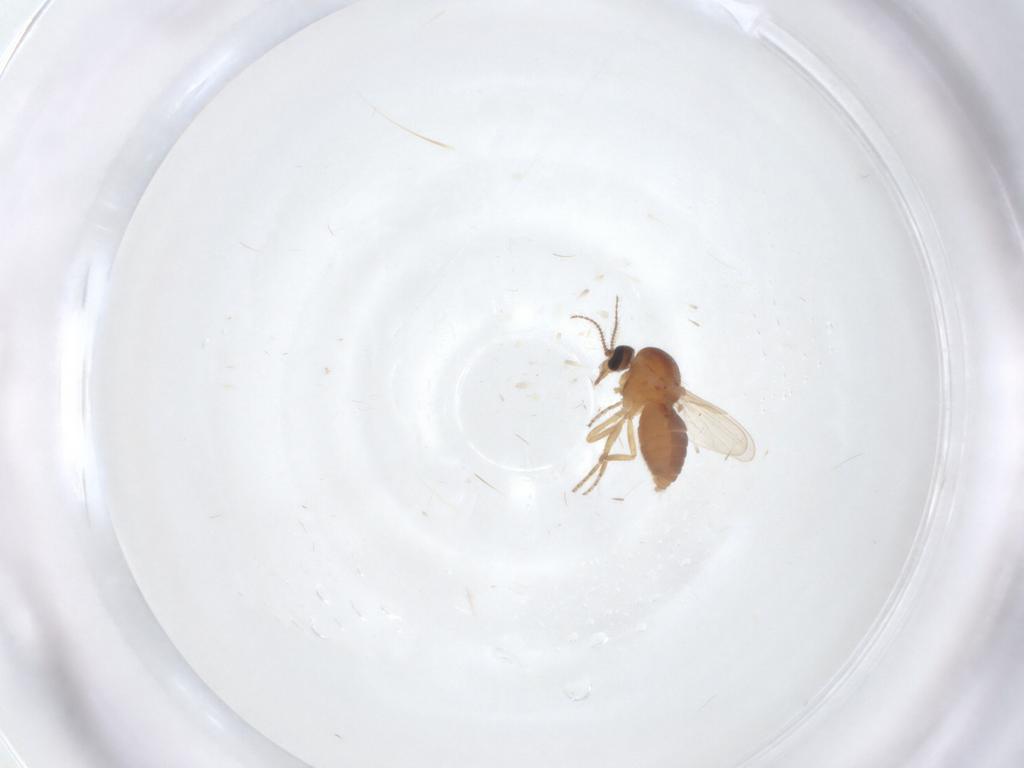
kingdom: Animalia
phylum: Arthropoda
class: Insecta
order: Diptera
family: Ceratopogonidae
